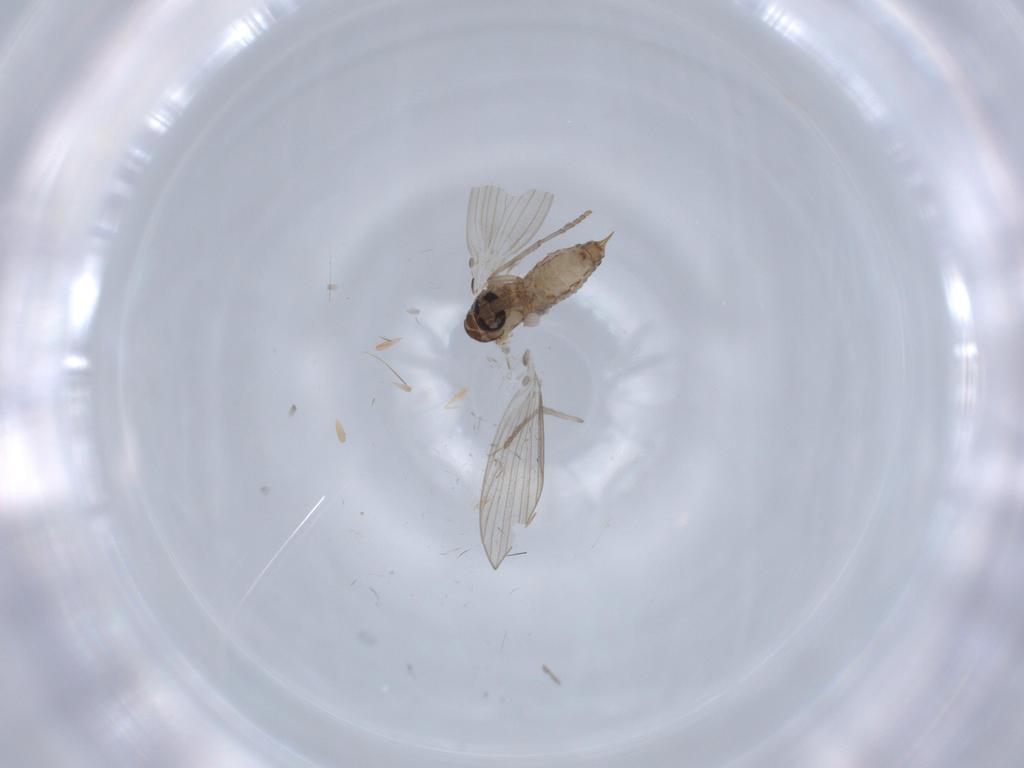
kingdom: Animalia
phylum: Arthropoda
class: Insecta
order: Diptera
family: Psychodidae
